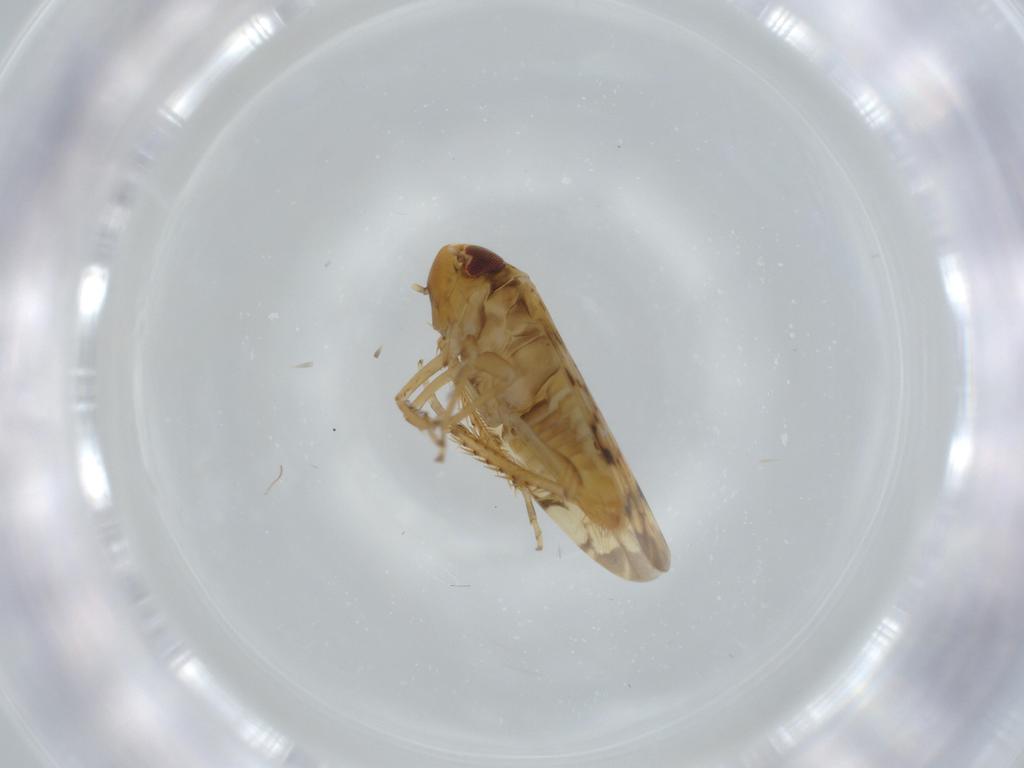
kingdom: Animalia
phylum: Arthropoda
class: Insecta
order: Hemiptera
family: Cicadellidae
